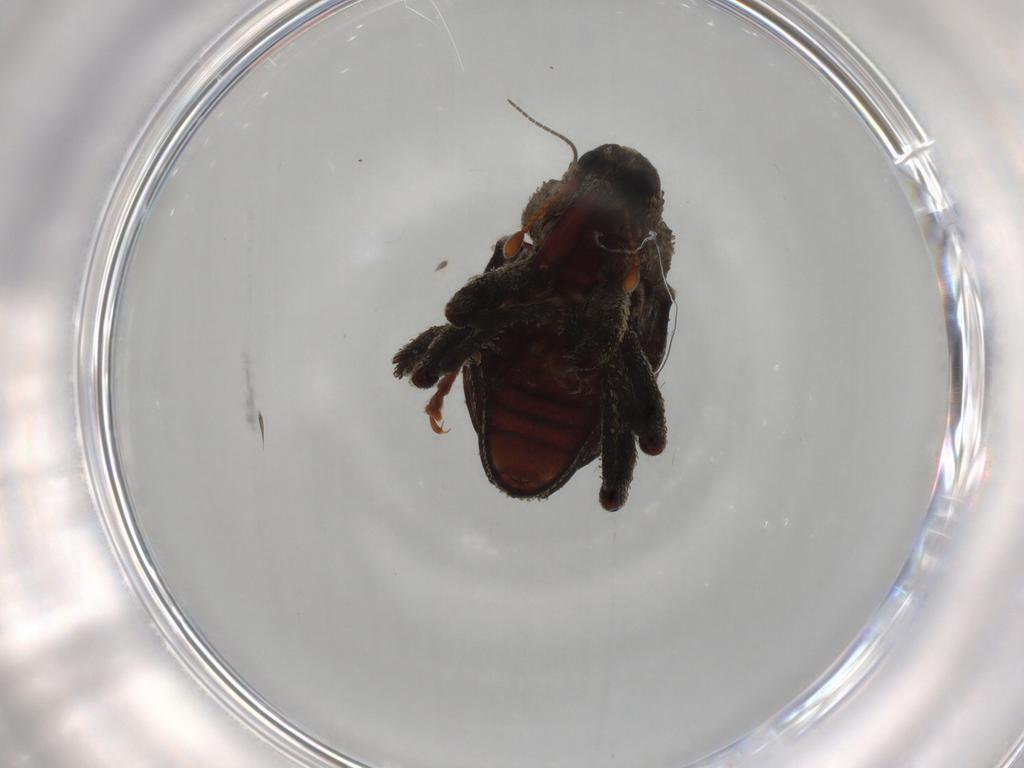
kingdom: Animalia
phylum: Arthropoda
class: Insecta
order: Coleoptera
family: Curculionidae
